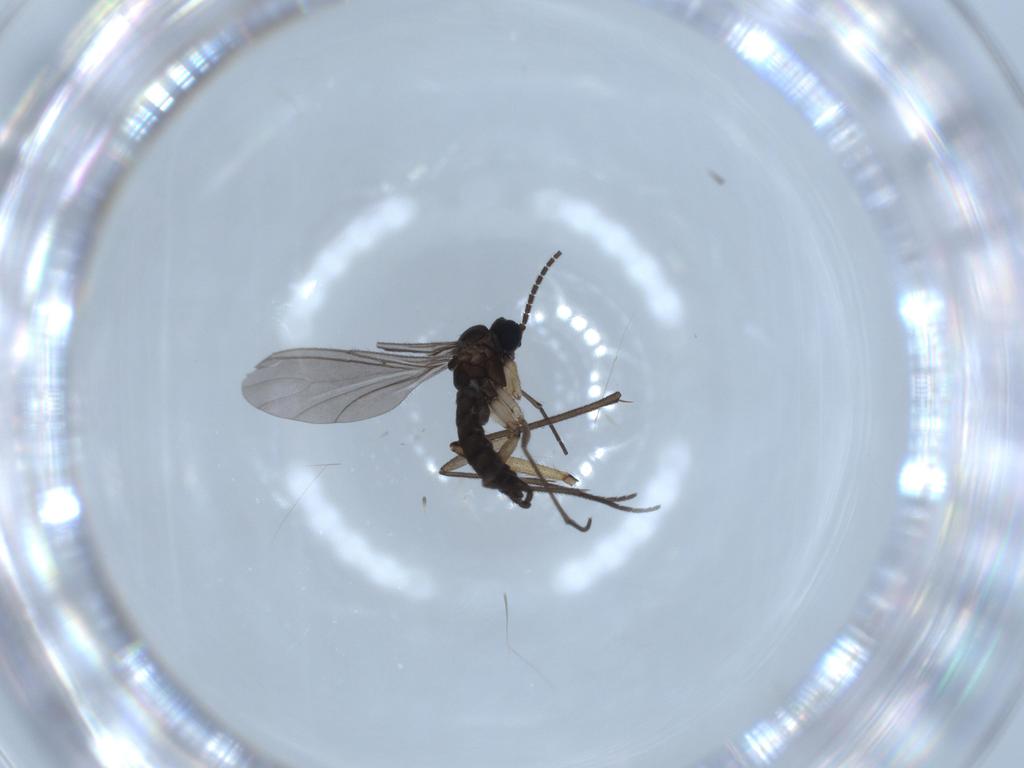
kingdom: Animalia
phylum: Arthropoda
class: Insecta
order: Diptera
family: Sciaridae
